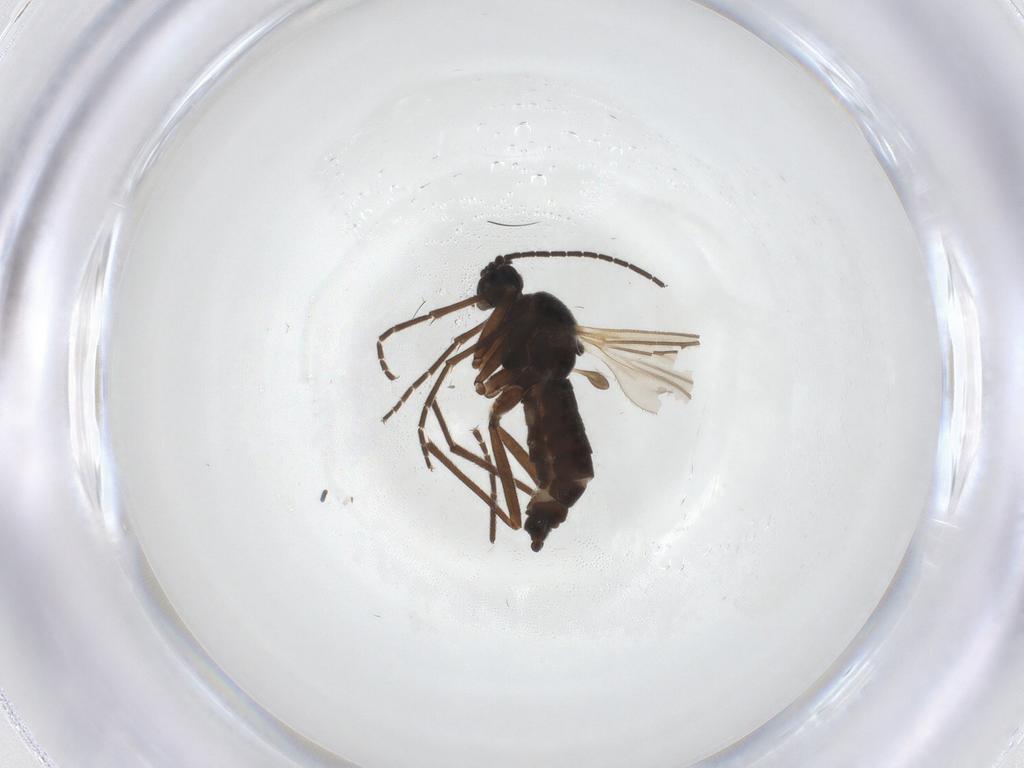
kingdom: Animalia
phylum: Arthropoda
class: Insecta
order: Diptera
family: Sciaridae
